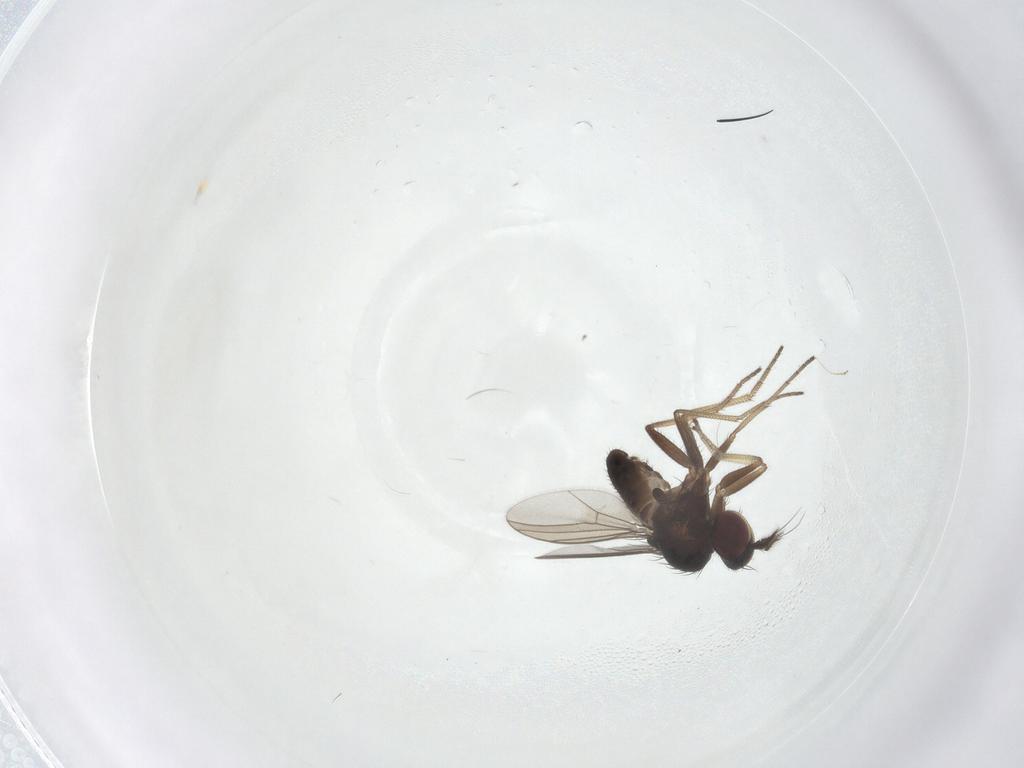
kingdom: Animalia
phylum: Arthropoda
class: Insecta
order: Diptera
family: Dolichopodidae
